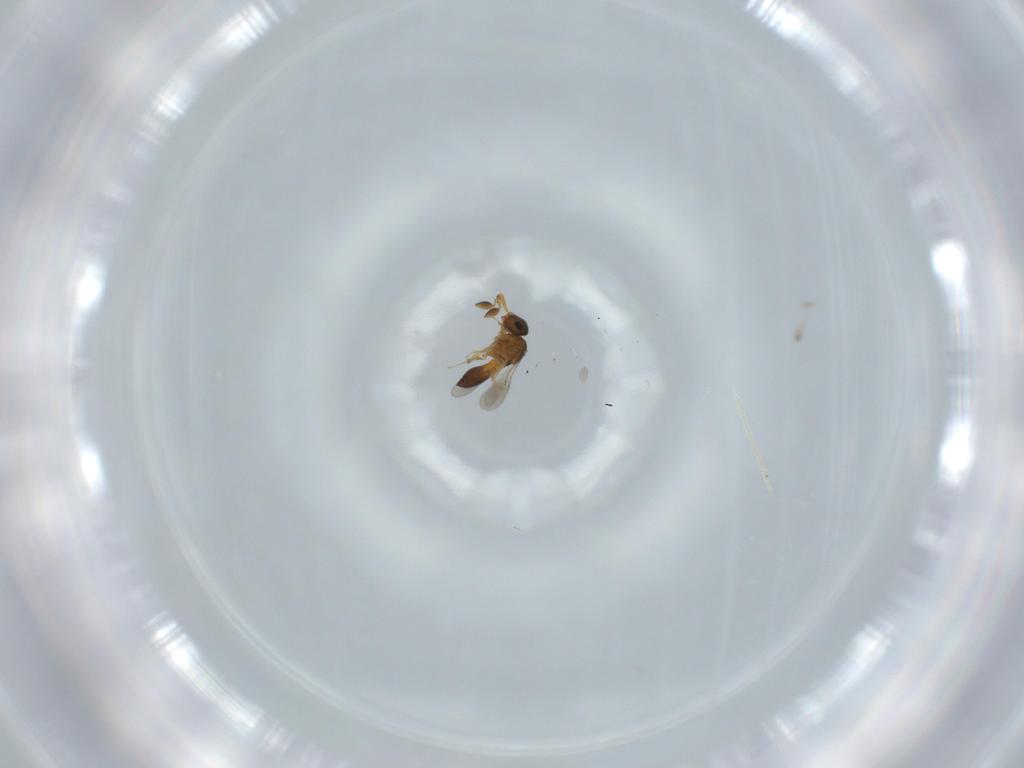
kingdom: Animalia
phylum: Arthropoda
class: Insecta
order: Hymenoptera
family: Scelionidae
